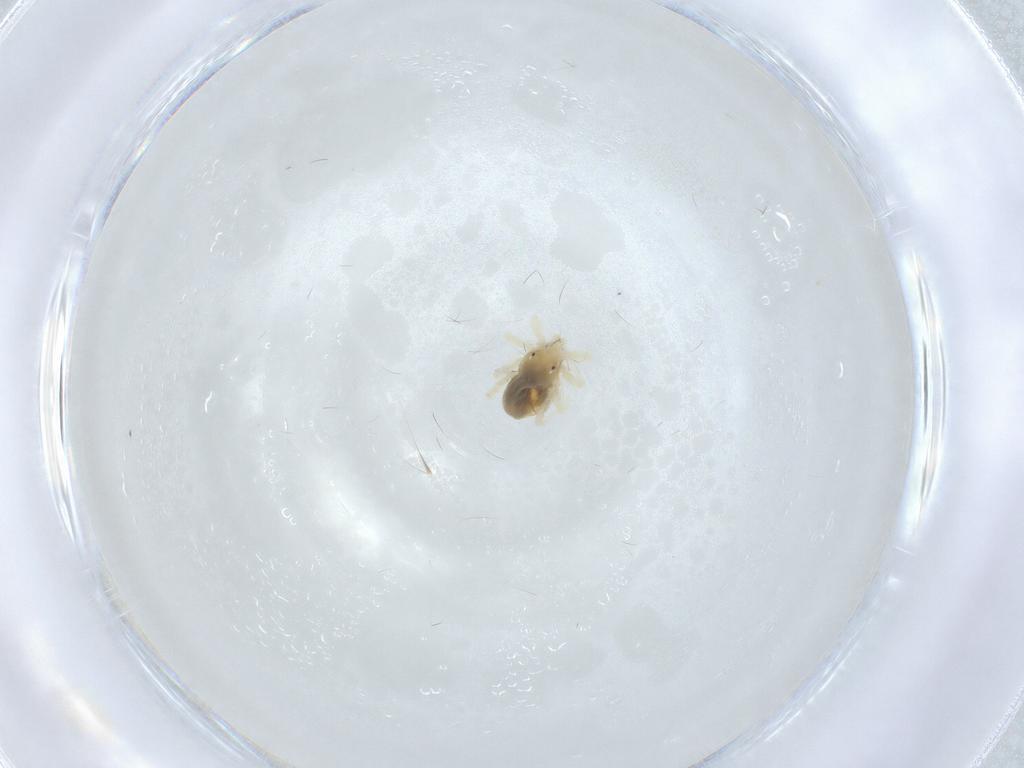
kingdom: Animalia
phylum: Arthropoda
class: Arachnida
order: Trombidiformes
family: Anystidae
